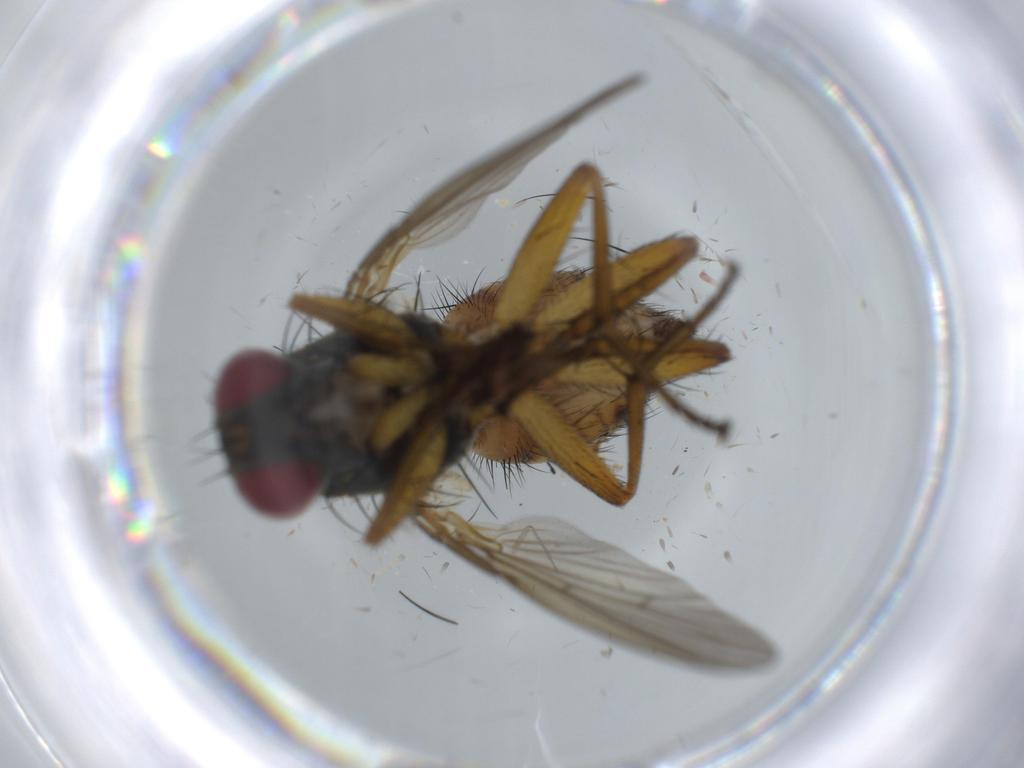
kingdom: Animalia
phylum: Arthropoda
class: Insecta
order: Diptera
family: Muscidae
